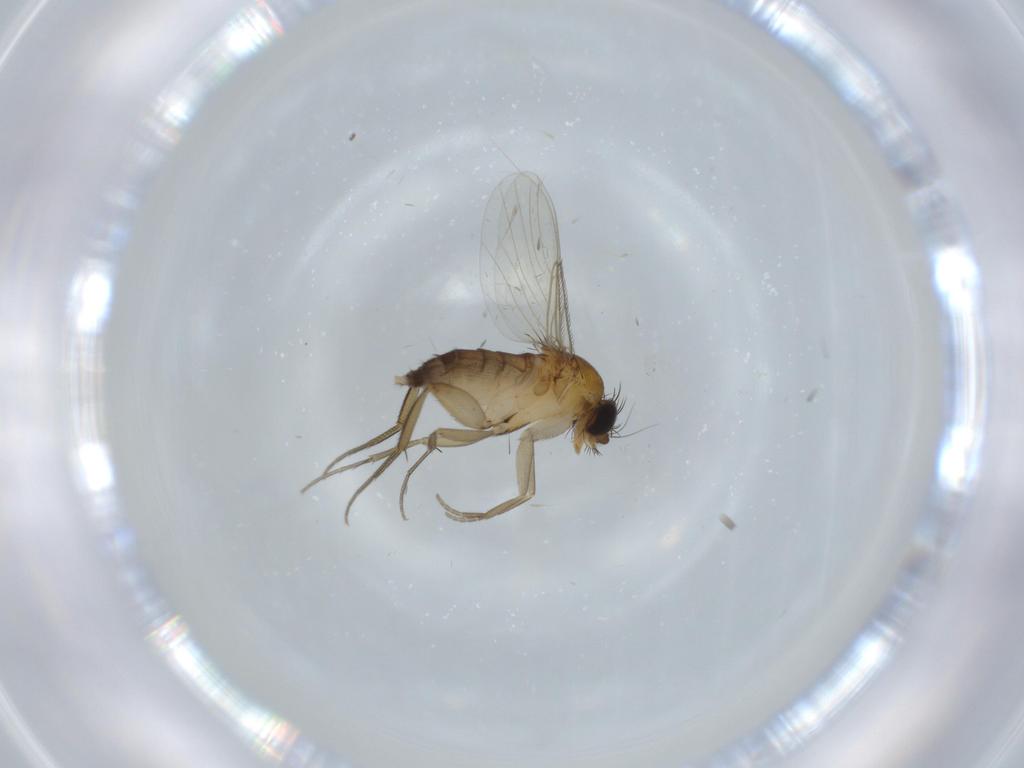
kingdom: Animalia
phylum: Arthropoda
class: Insecta
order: Diptera
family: Phoridae
